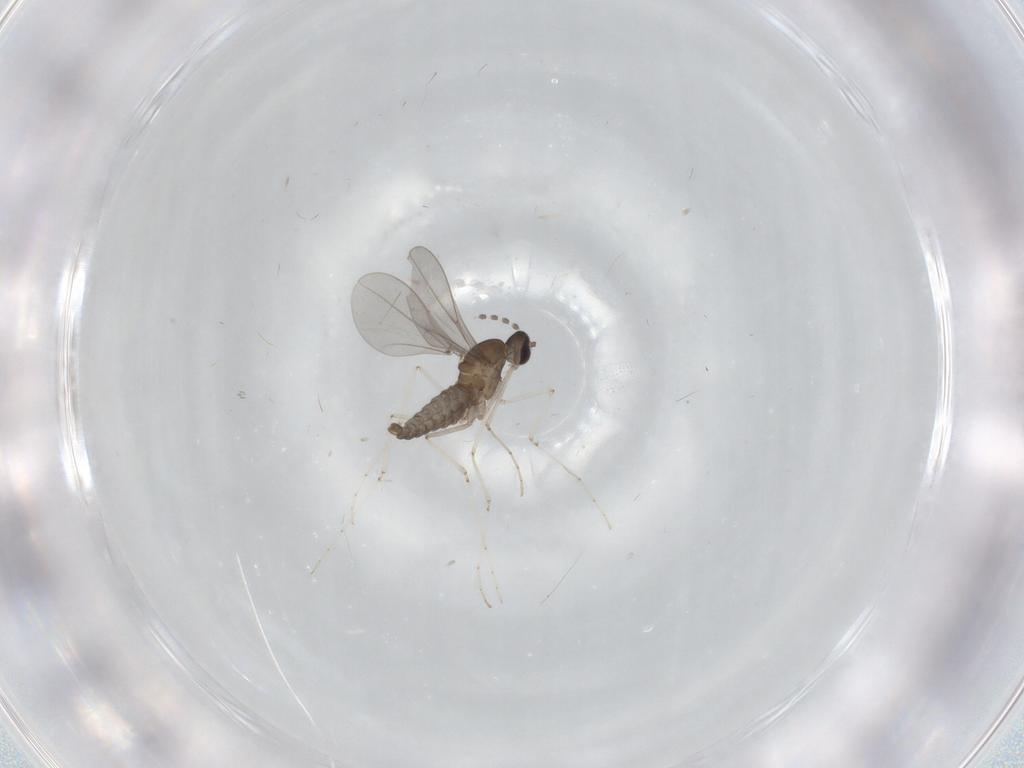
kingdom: Animalia
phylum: Arthropoda
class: Insecta
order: Diptera
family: Cecidomyiidae
